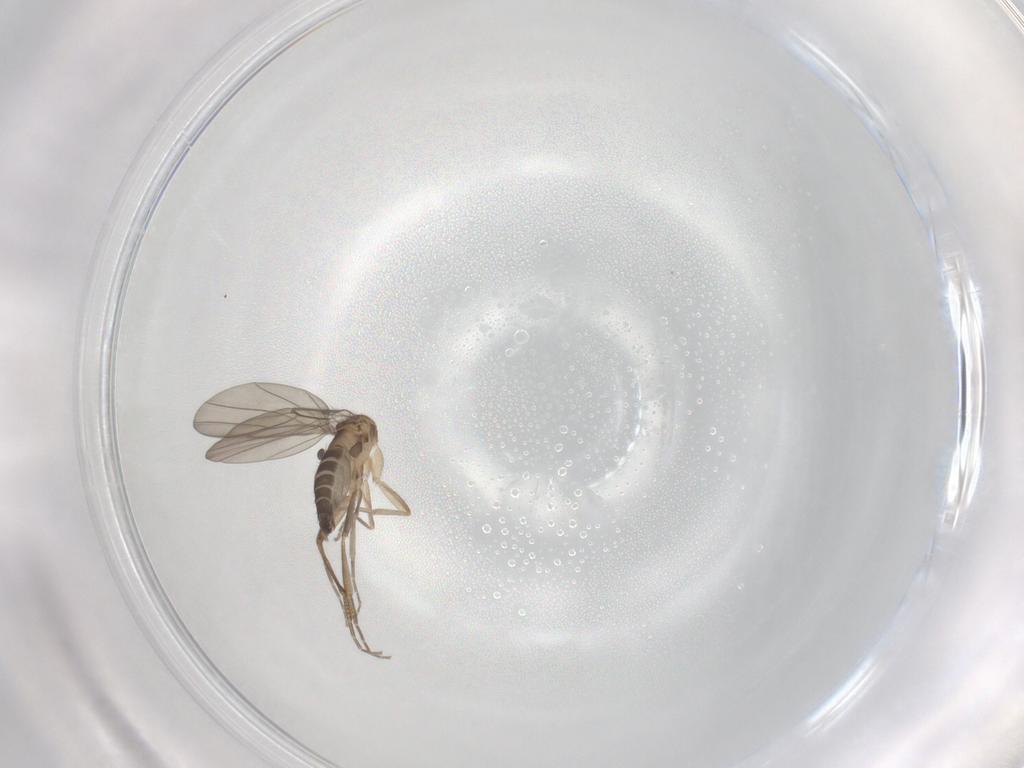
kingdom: Animalia
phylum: Arthropoda
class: Insecta
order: Diptera
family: Phoridae
